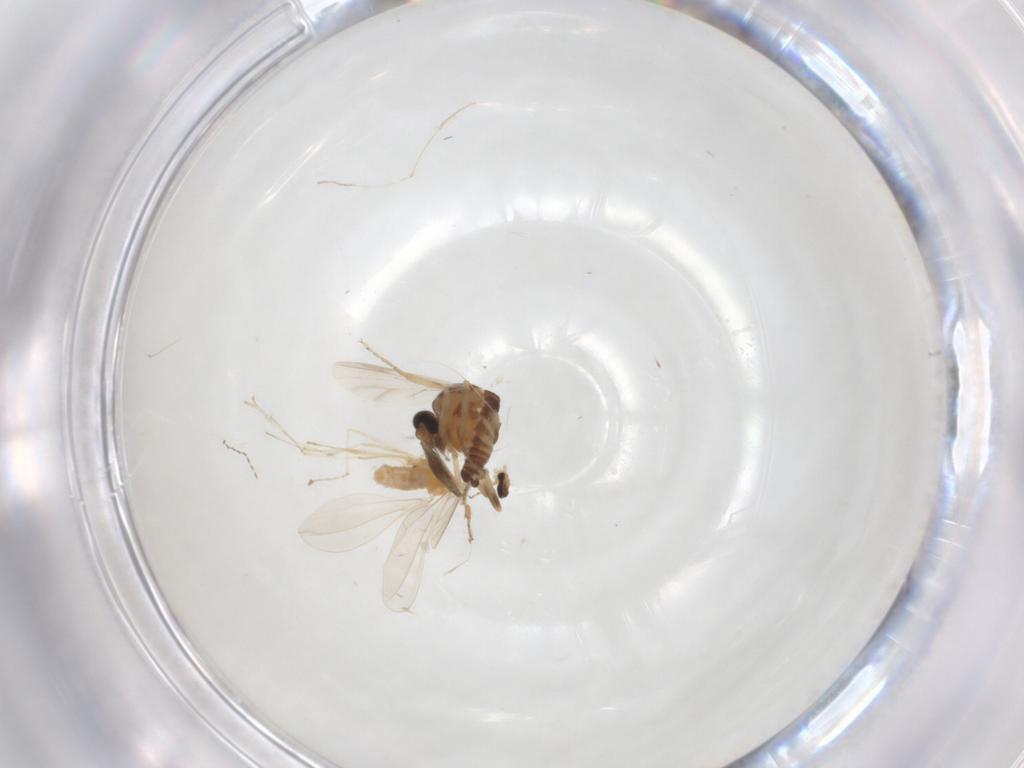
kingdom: Animalia
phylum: Arthropoda
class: Insecta
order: Diptera
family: Ceratopogonidae
